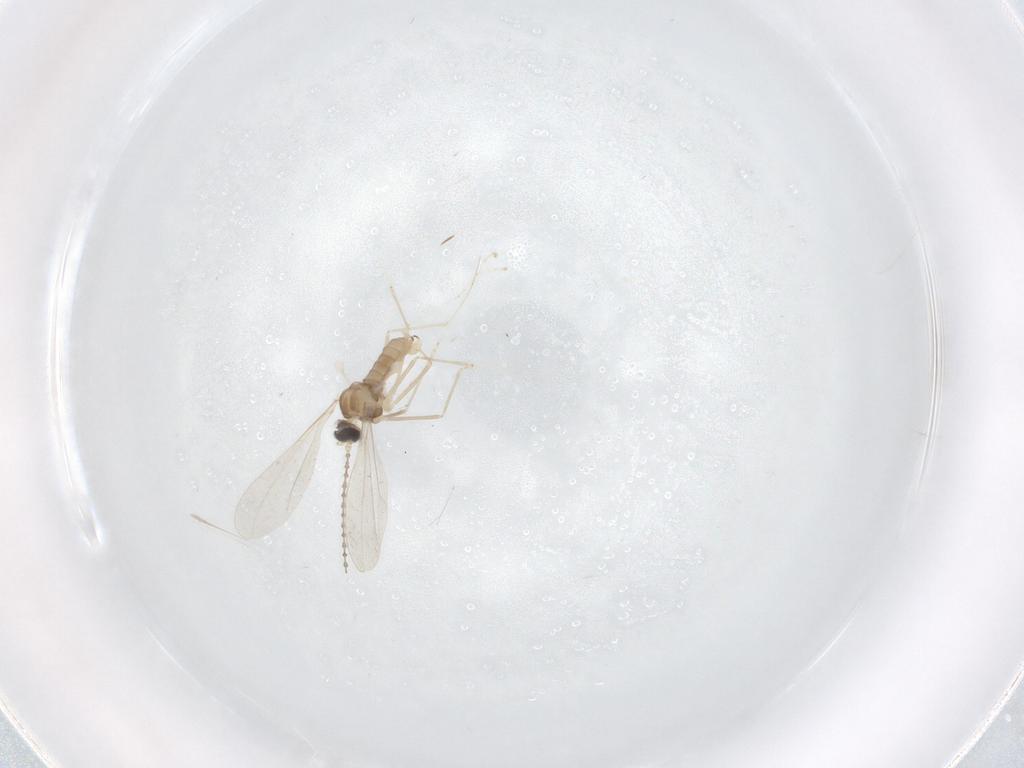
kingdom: Animalia
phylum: Arthropoda
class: Insecta
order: Diptera
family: Cecidomyiidae
